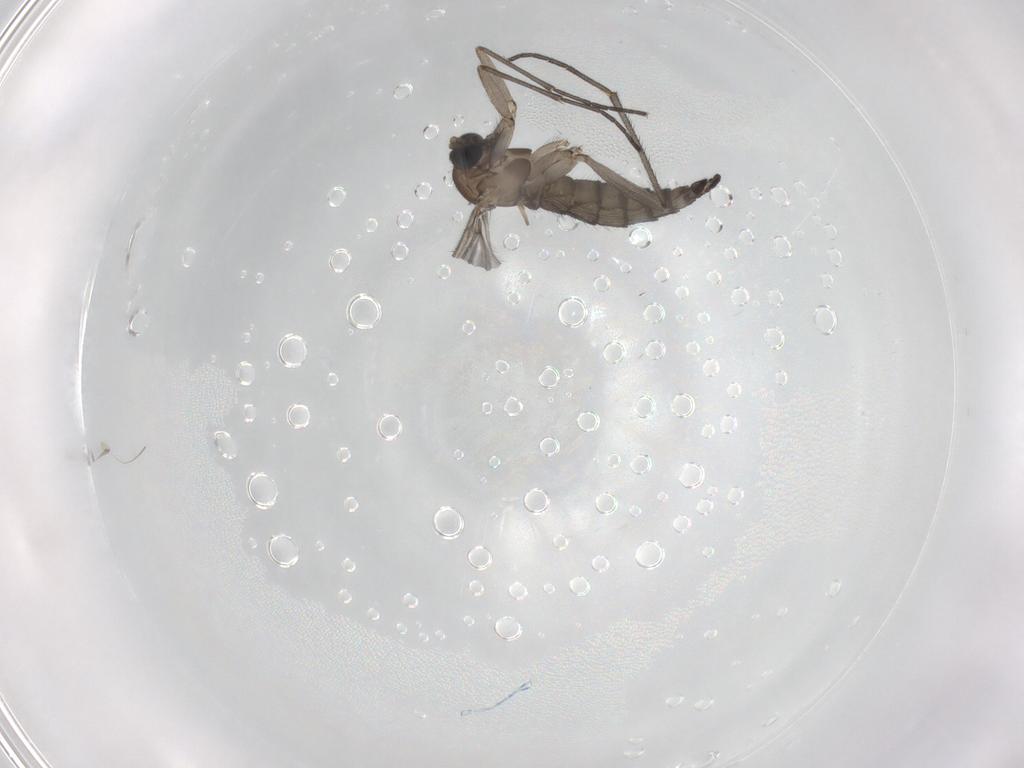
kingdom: Animalia
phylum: Arthropoda
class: Insecta
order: Diptera
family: Sciaridae
